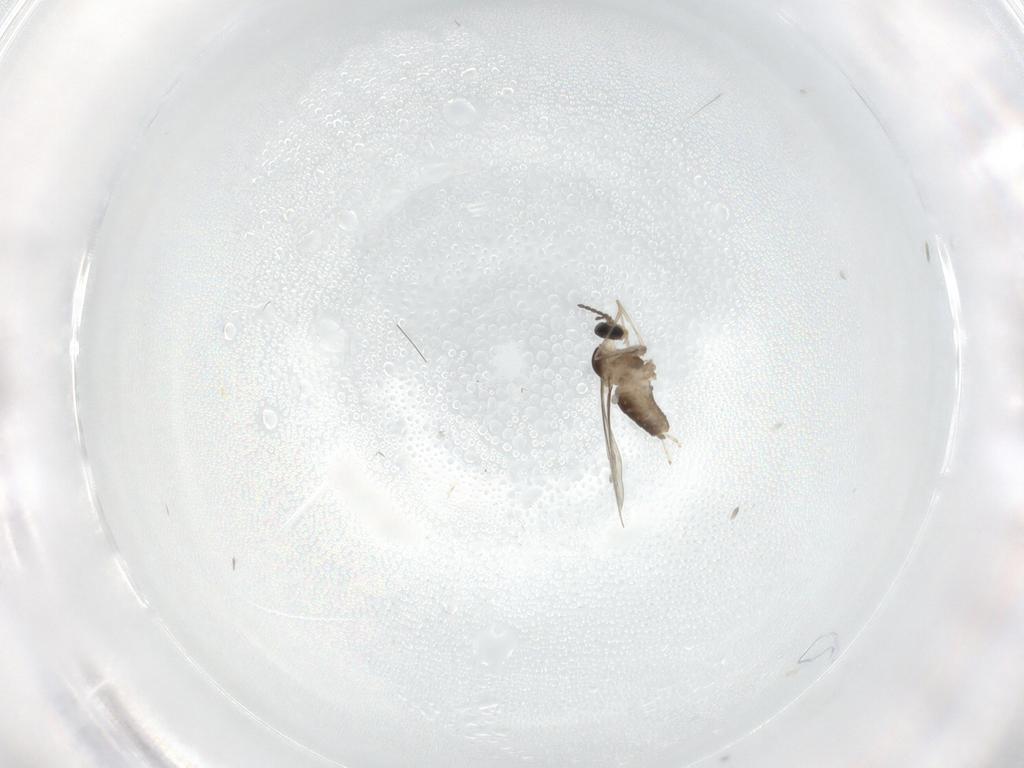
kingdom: Animalia
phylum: Arthropoda
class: Insecta
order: Diptera
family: Cecidomyiidae
